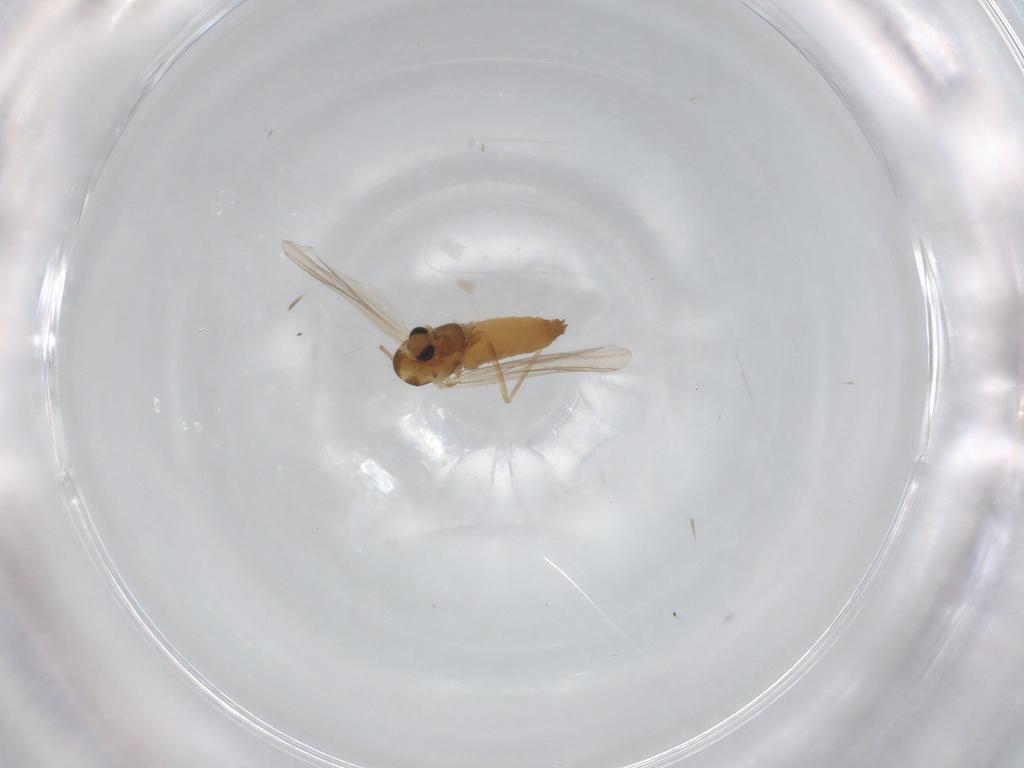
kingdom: Animalia
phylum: Arthropoda
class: Insecta
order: Diptera
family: Chironomidae
